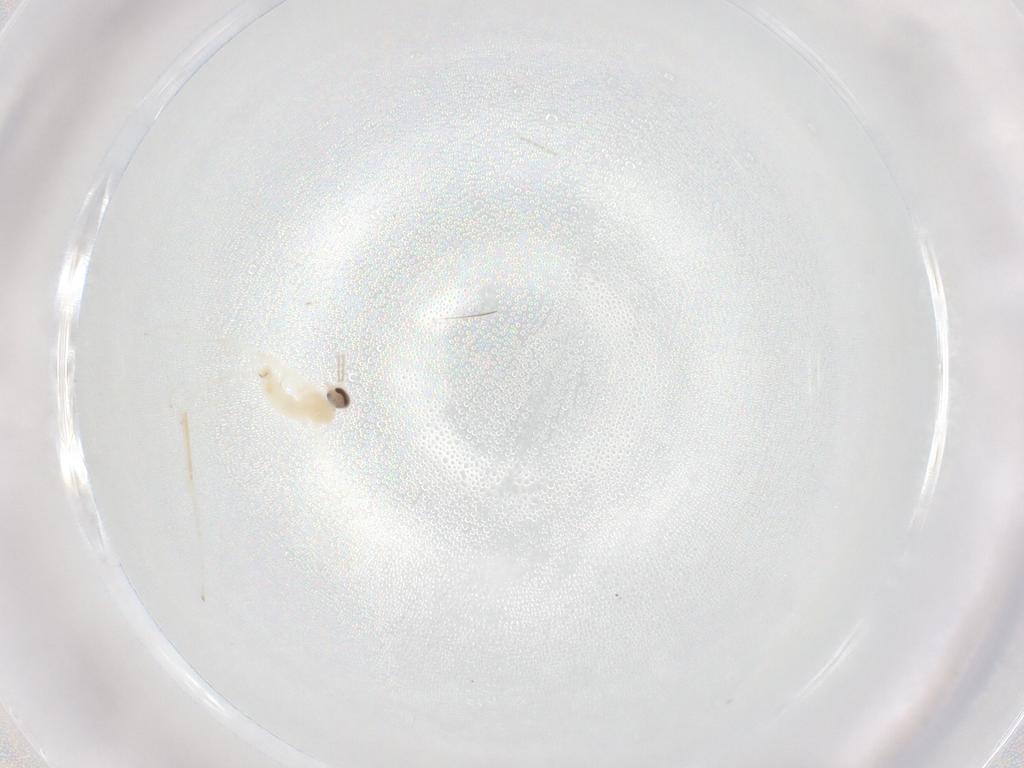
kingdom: Animalia
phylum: Arthropoda
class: Insecta
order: Diptera
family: Cecidomyiidae
